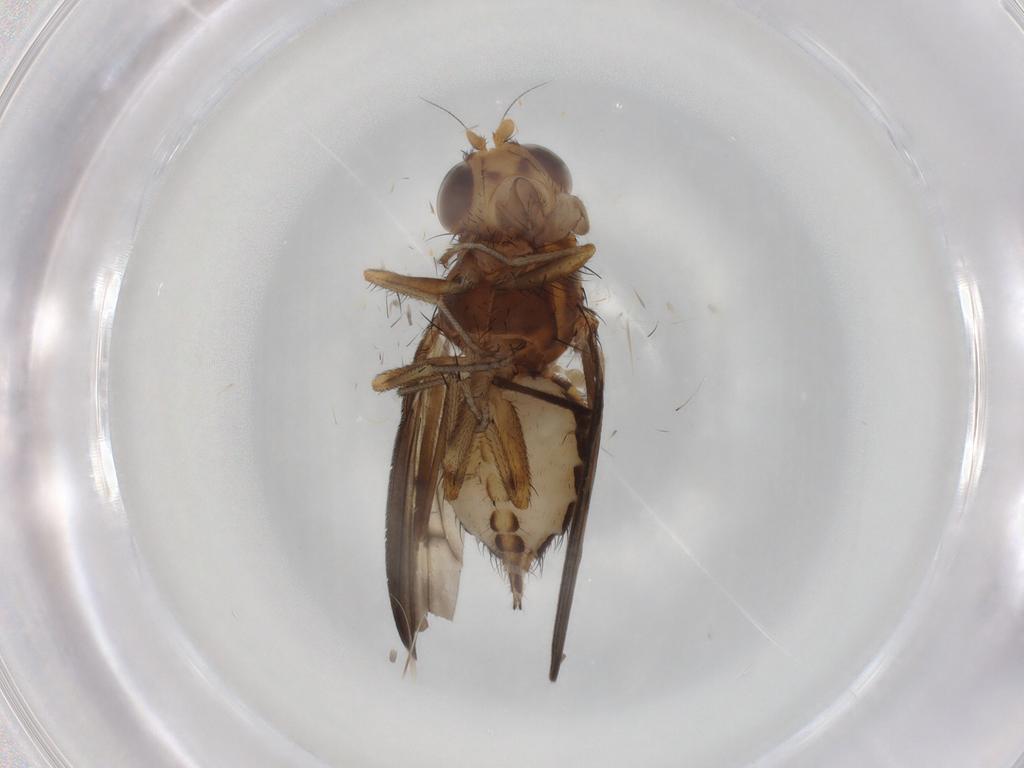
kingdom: Animalia
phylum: Arthropoda
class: Insecta
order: Diptera
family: Lauxaniidae
